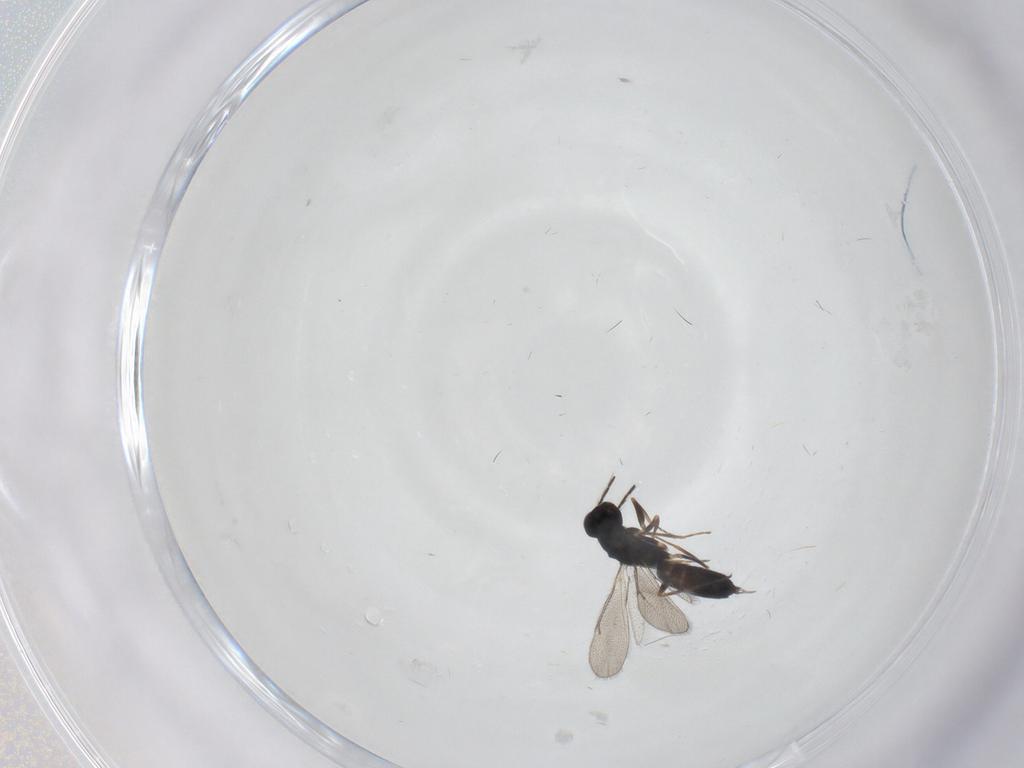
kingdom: Animalia
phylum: Arthropoda
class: Insecta
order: Hymenoptera
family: Eulophidae
